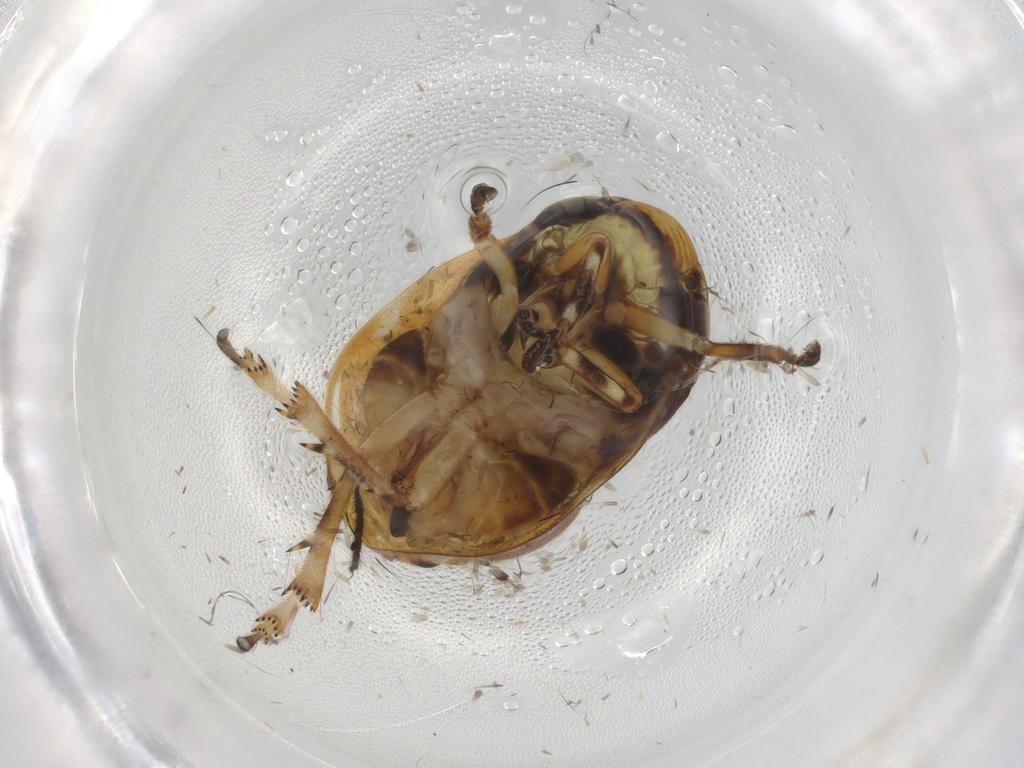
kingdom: Animalia
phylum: Arthropoda
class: Insecta
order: Hemiptera
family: Clastopteridae
